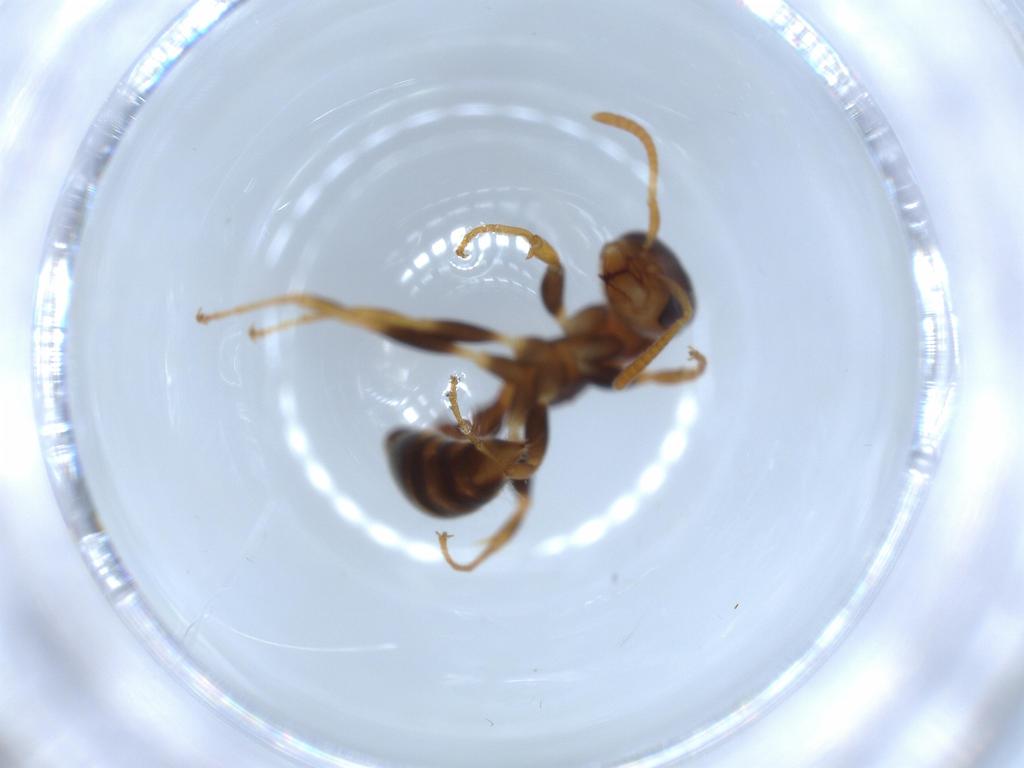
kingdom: Animalia
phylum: Arthropoda
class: Insecta
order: Hymenoptera
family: Formicidae
